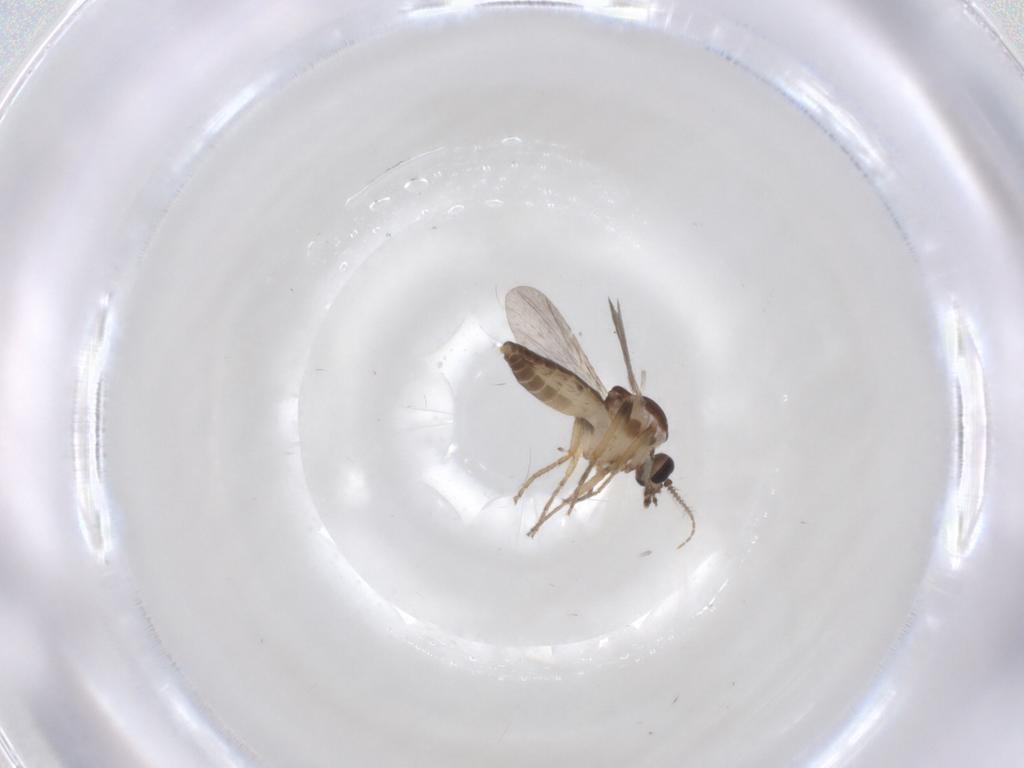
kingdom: Animalia
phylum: Arthropoda
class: Insecta
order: Diptera
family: Ceratopogonidae
